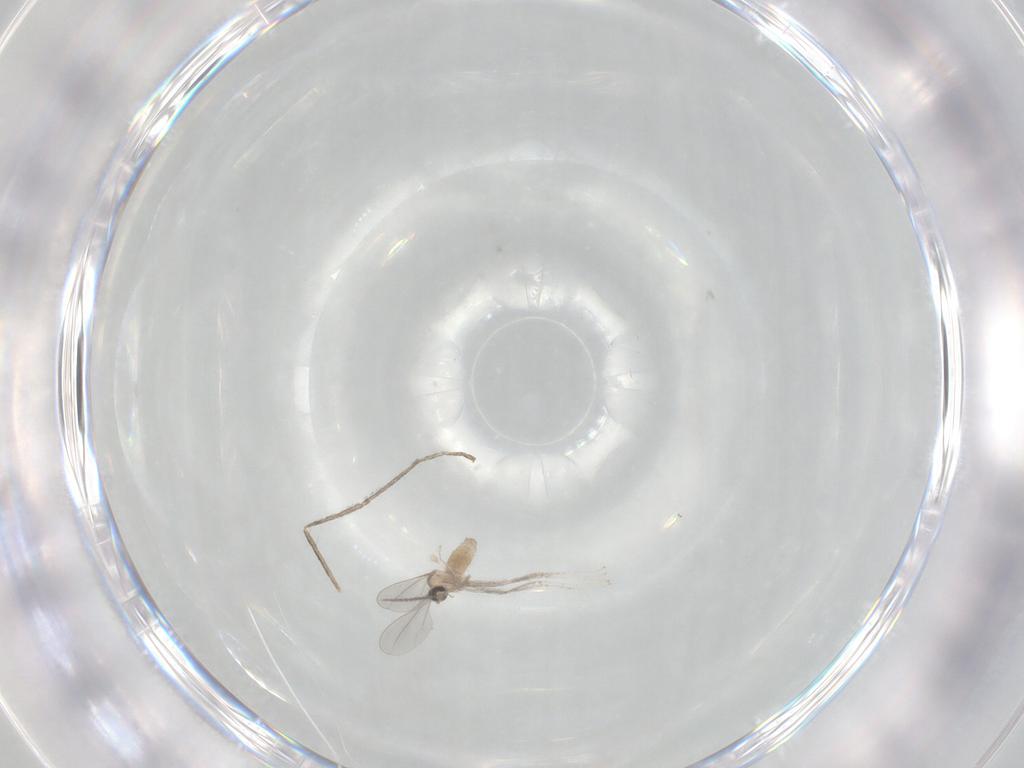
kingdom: Animalia
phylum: Arthropoda
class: Insecta
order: Diptera
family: Cecidomyiidae
